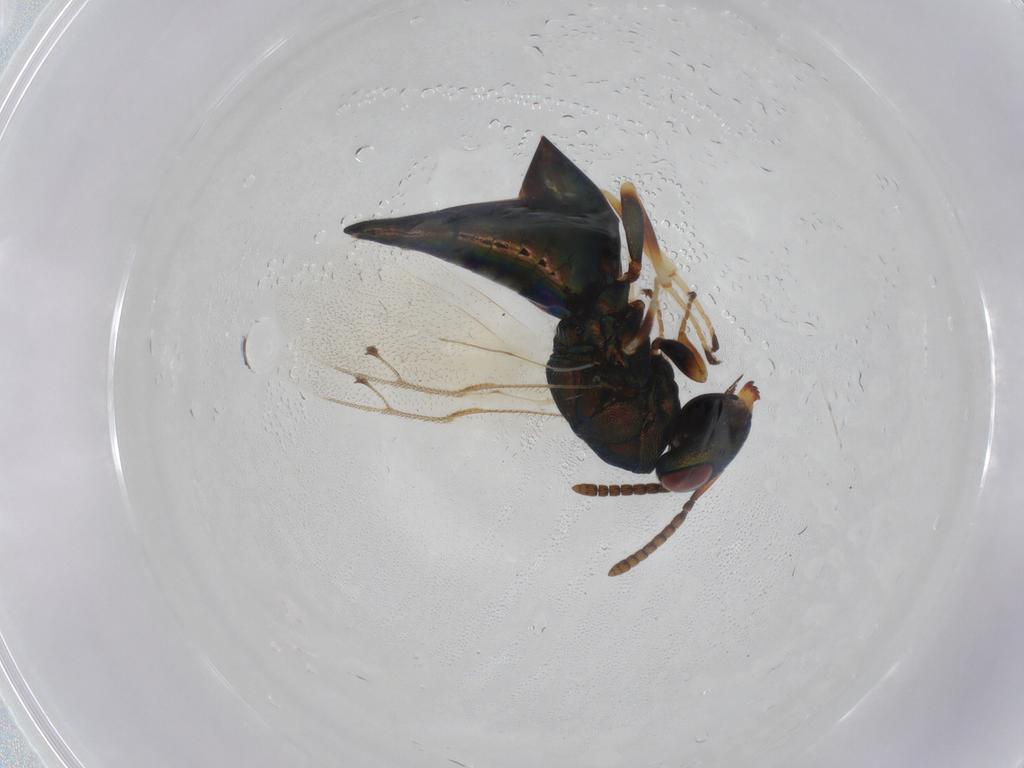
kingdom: Animalia
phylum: Arthropoda
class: Insecta
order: Hymenoptera
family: Pteromalidae
